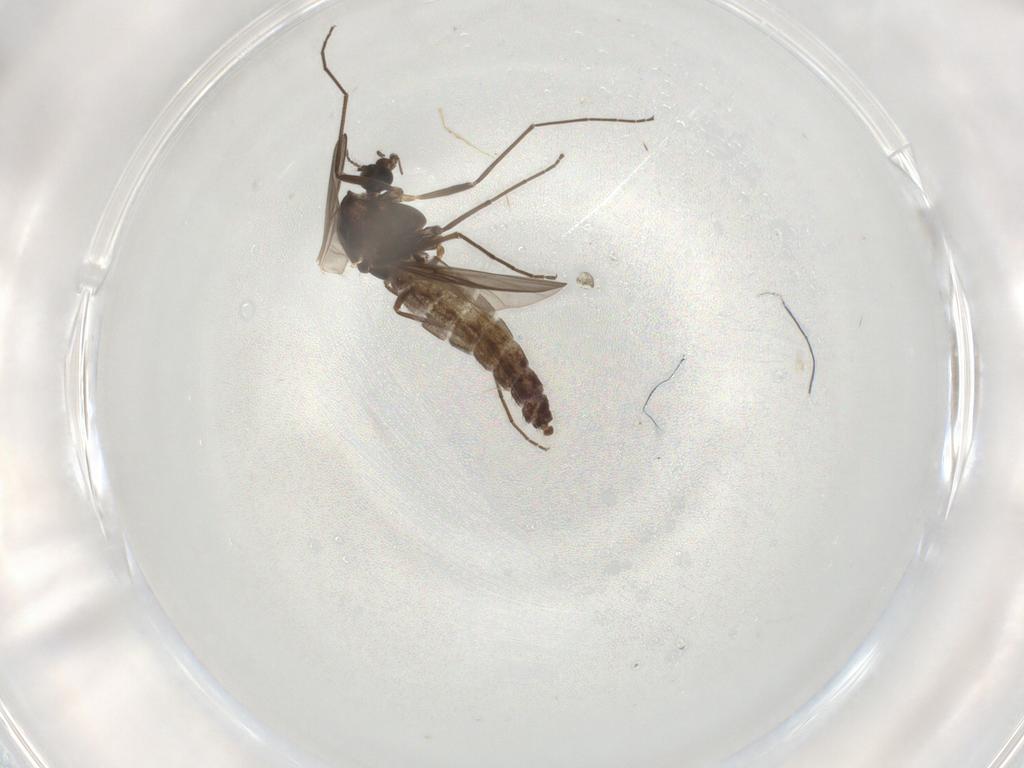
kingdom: Animalia
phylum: Arthropoda
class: Insecta
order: Diptera
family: Chironomidae
